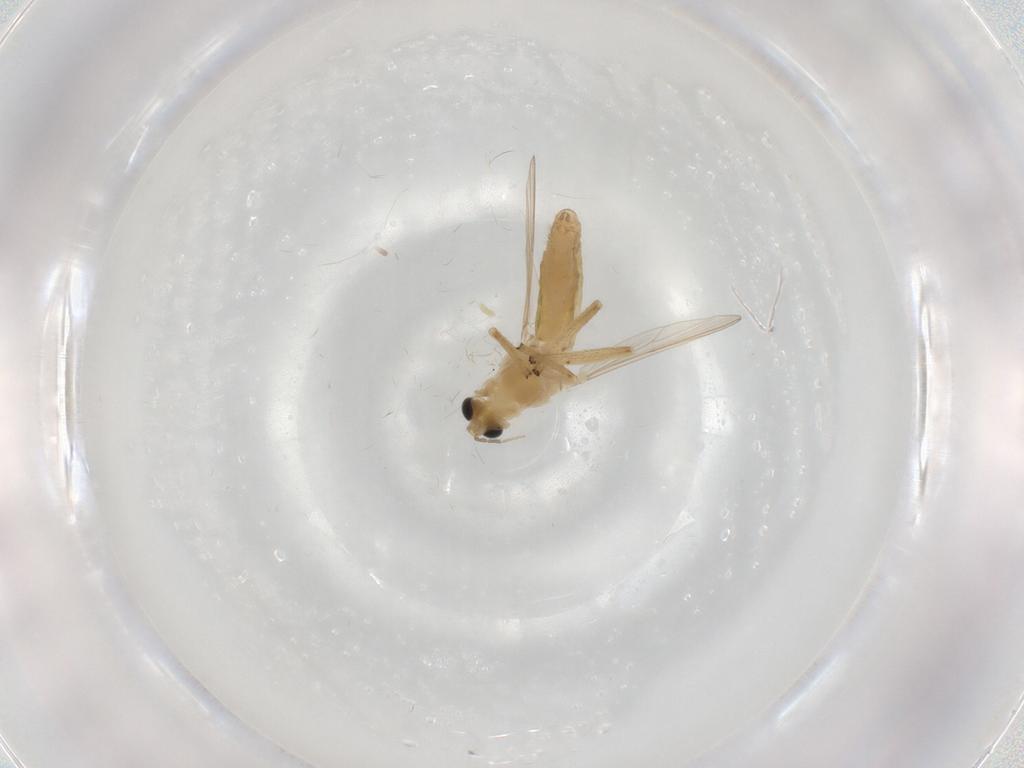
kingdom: Animalia
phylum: Arthropoda
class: Insecta
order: Diptera
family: Chironomidae
